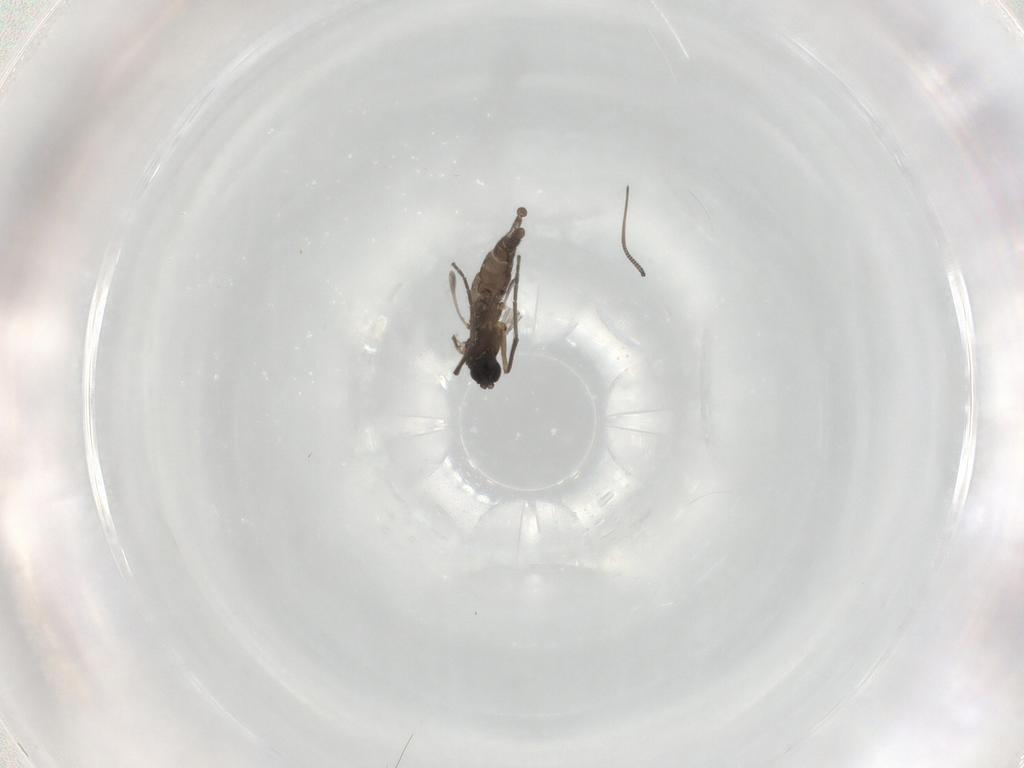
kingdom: Animalia
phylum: Arthropoda
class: Insecta
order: Diptera
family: Sciaridae
